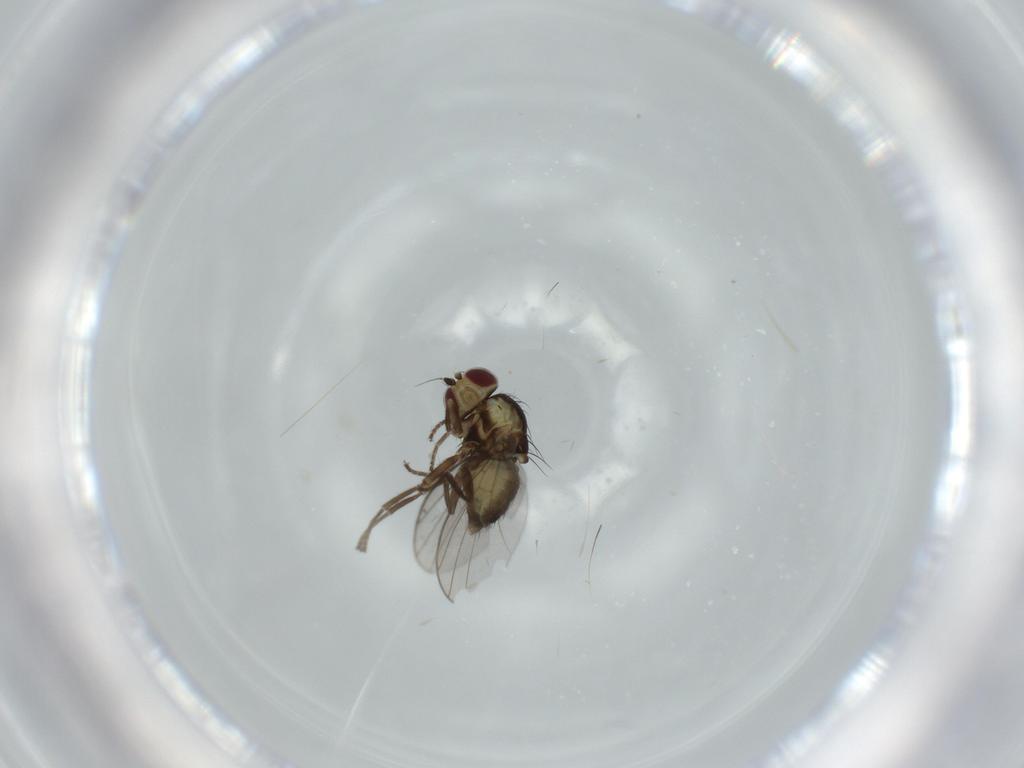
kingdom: Animalia
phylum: Arthropoda
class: Insecta
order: Diptera
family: Agromyzidae
